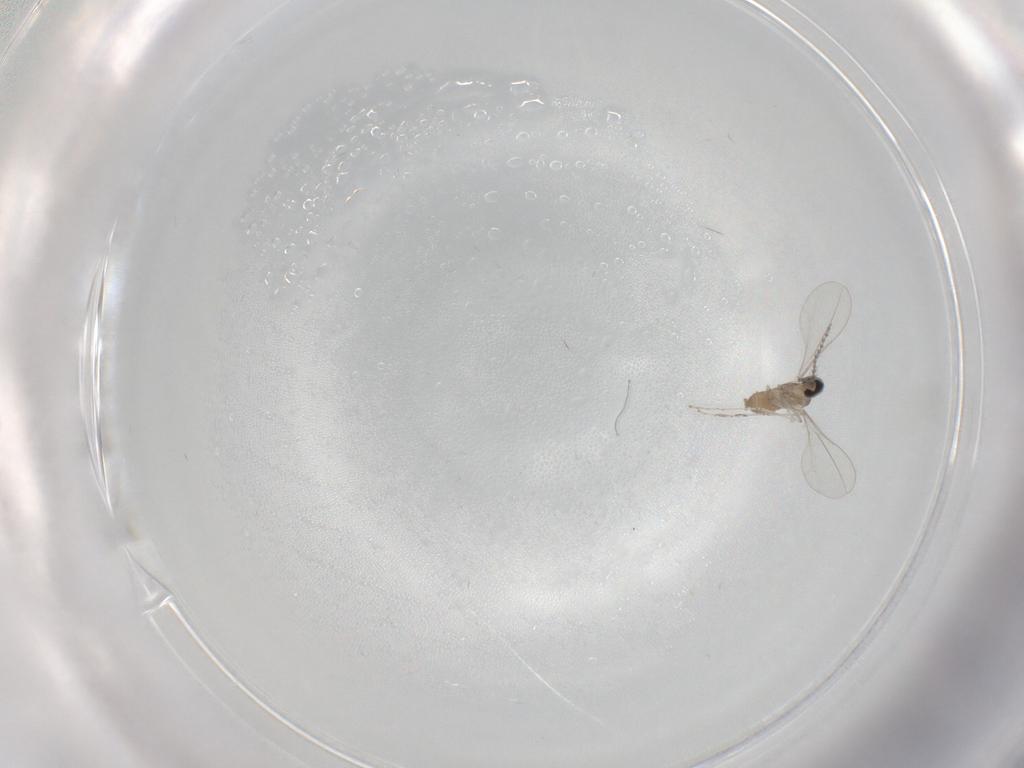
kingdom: Animalia
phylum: Arthropoda
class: Insecta
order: Diptera
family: Cecidomyiidae
